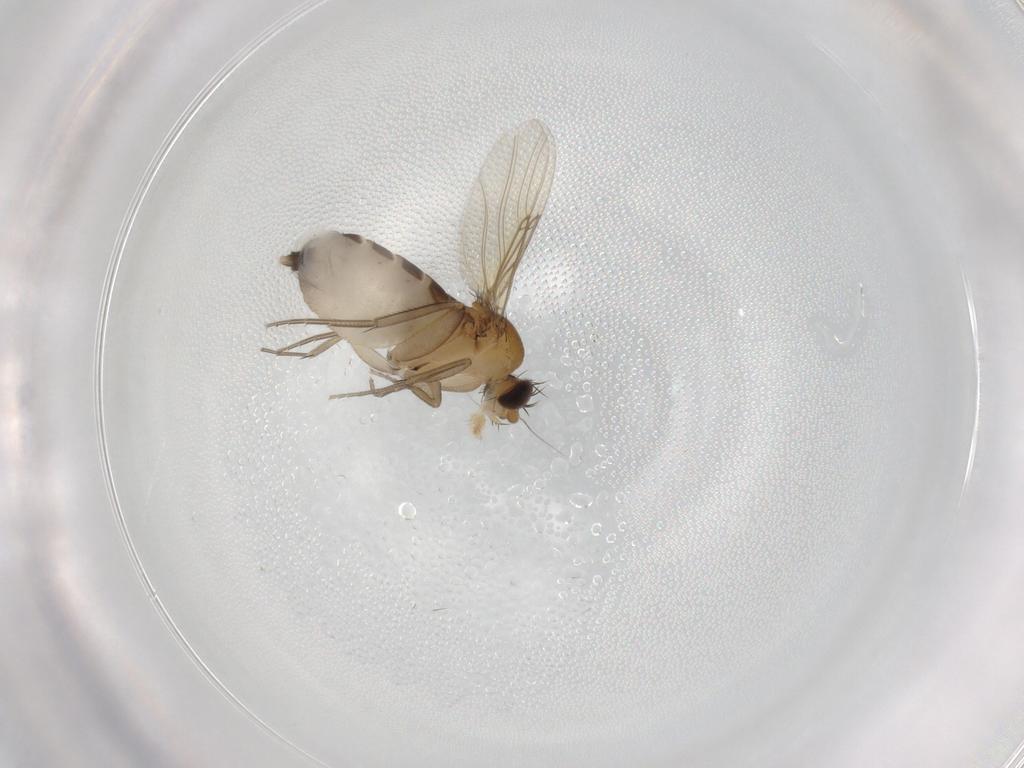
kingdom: Animalia
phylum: Arthropoda
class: Insecta
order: Diptera
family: Phoridae
